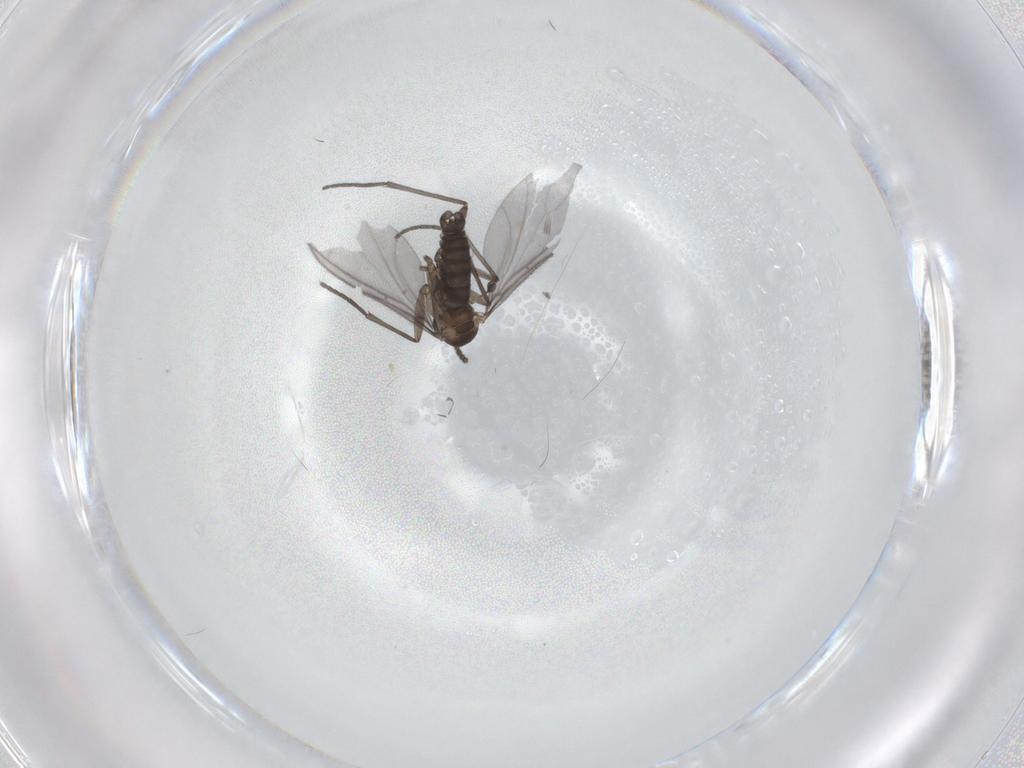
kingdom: Animalia
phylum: Arthropoda
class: Insecta
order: Diptera
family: Sciaridae
